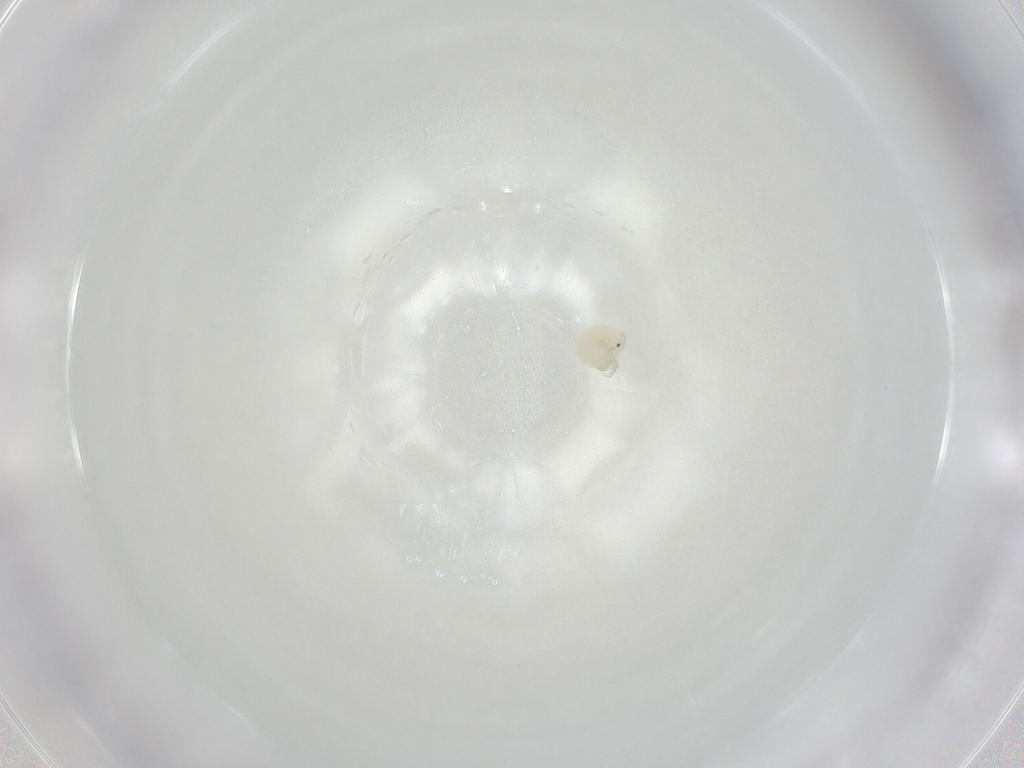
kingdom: Animalia
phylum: Arthropoda
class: Arachnida
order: Trombidiformes
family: Arrenuridae
